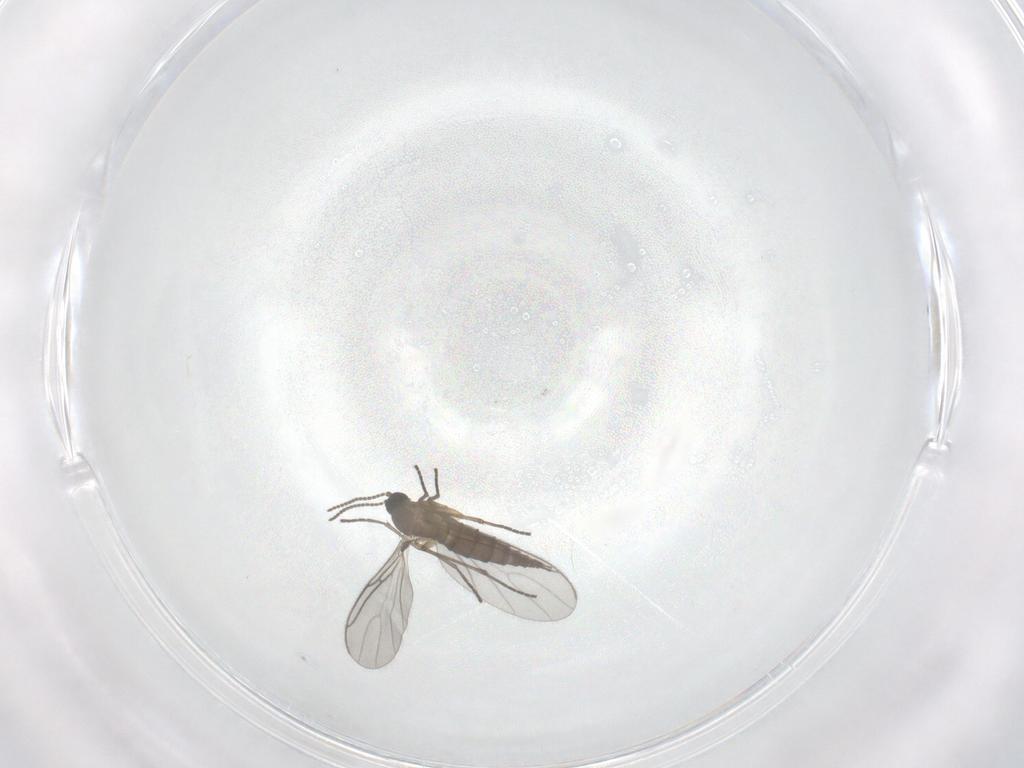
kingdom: Animalia
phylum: Arthropoda
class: Insecta
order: Diptera
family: Sciaridae
